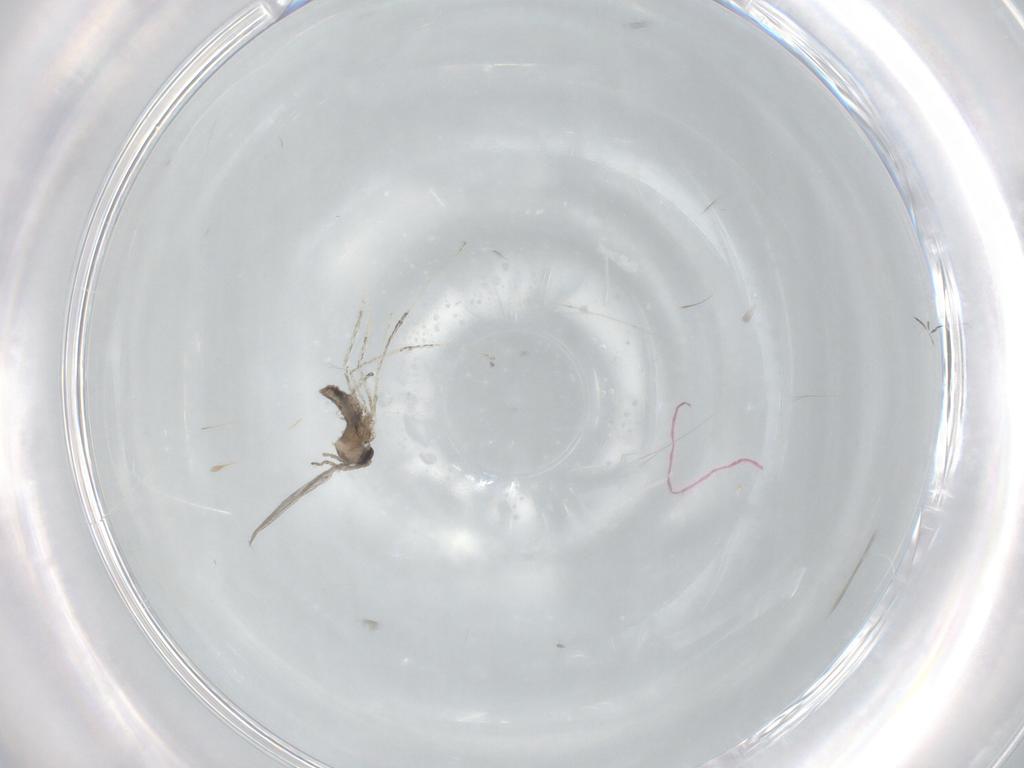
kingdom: Animalia
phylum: Arthropoda
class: Insecta
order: Diptera
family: Cecidomyiidae
